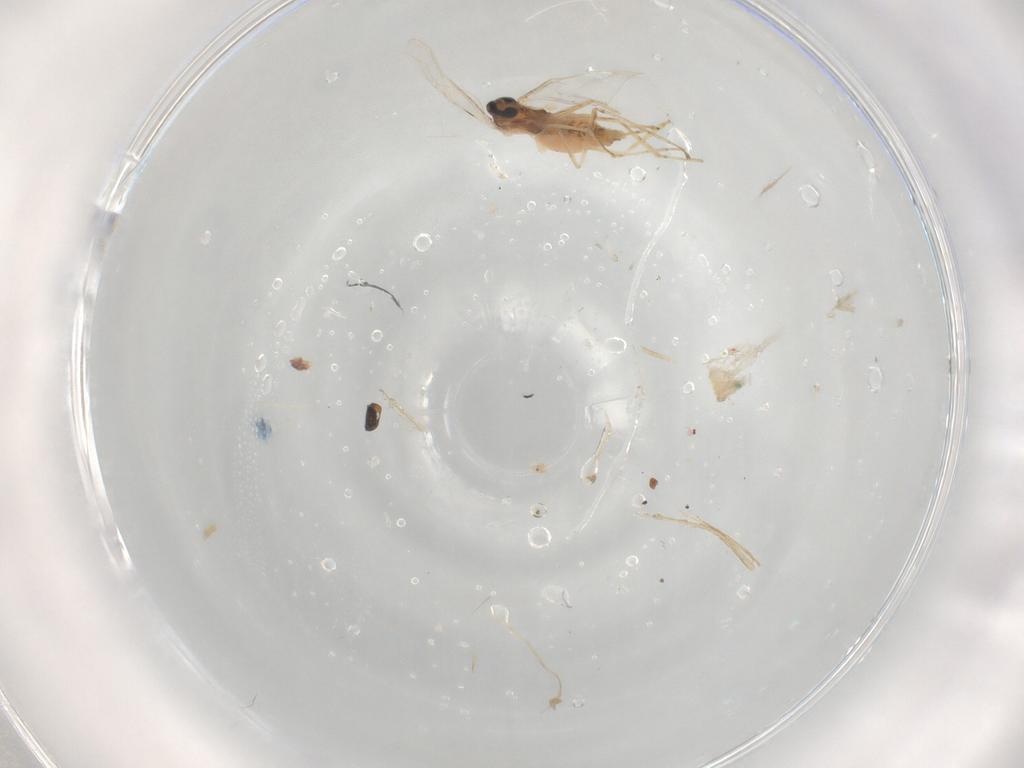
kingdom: Animalia
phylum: Arthropoda
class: Insecta
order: Diptera
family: Cecidomyiidae
